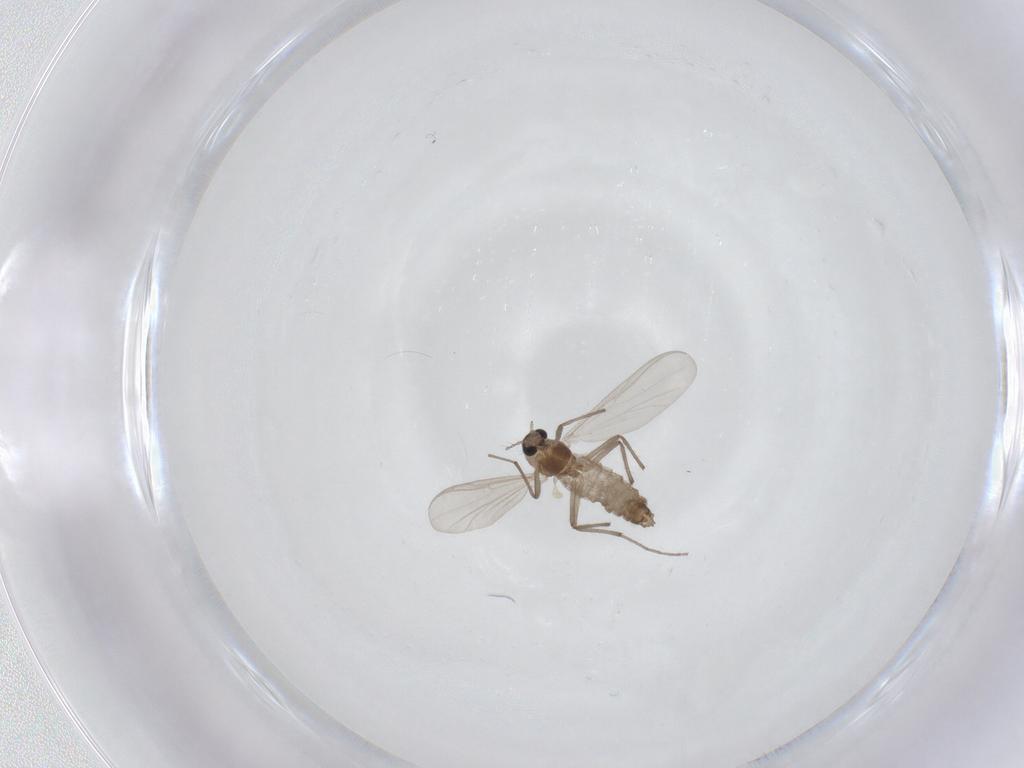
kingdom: Animalia
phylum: Arthropoda
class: Insecta
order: Diptera
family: Chironomidae
